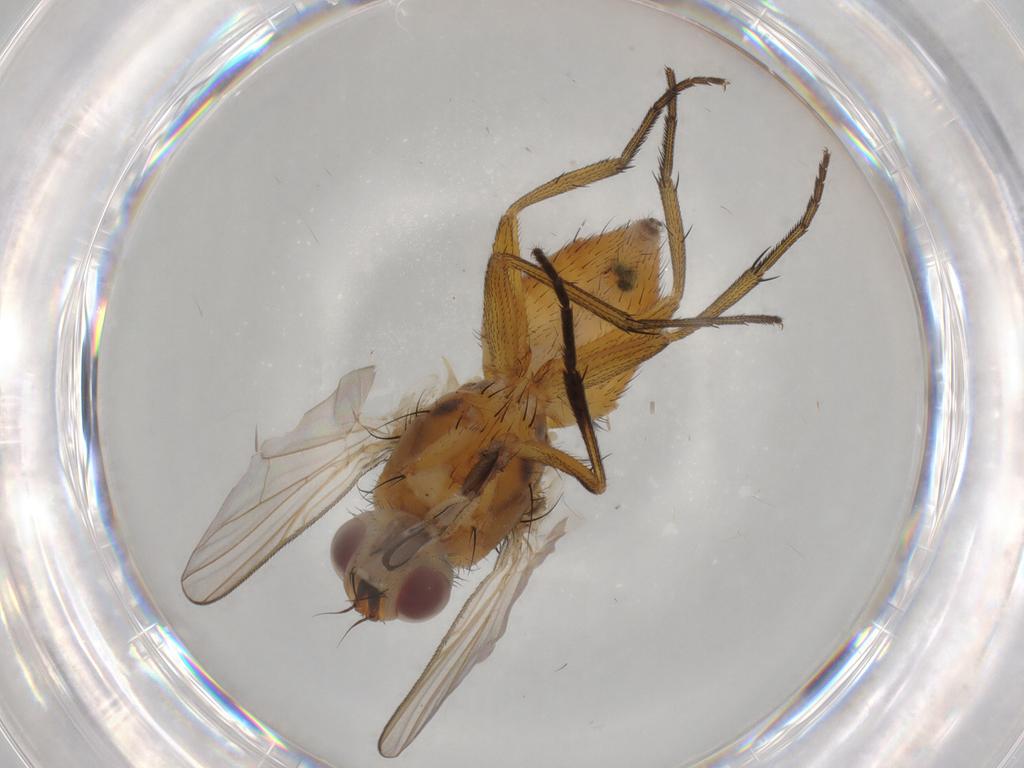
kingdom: Animalia
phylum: Arthropoda
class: Insecta
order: Diptera
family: Muscidae
